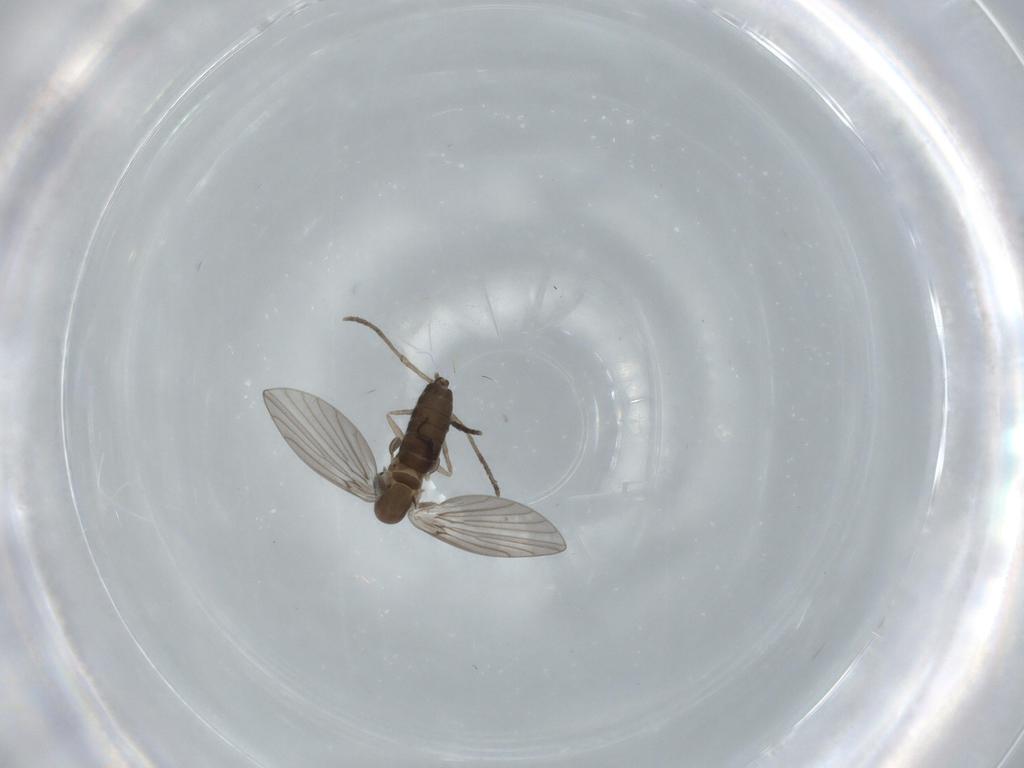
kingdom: Animalia
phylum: Arthropoda
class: Insecta
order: Diptera
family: Psychodidae
